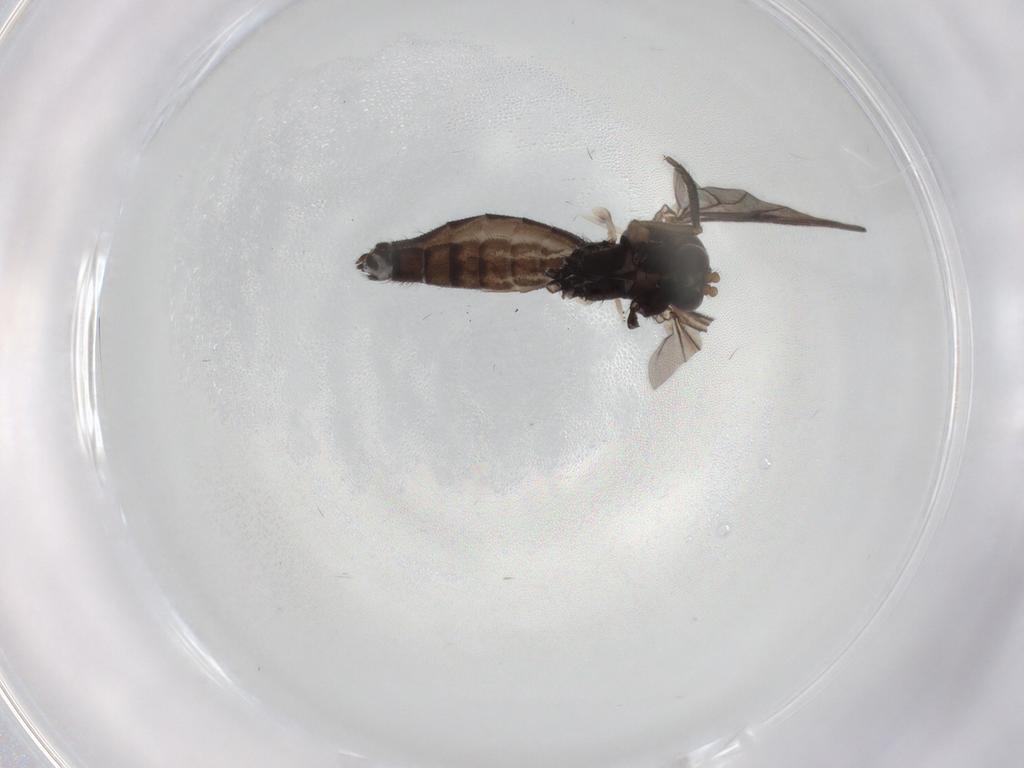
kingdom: Animalia
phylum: Arthropoda
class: Insecta
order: Diptera
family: Mycetophilidae
